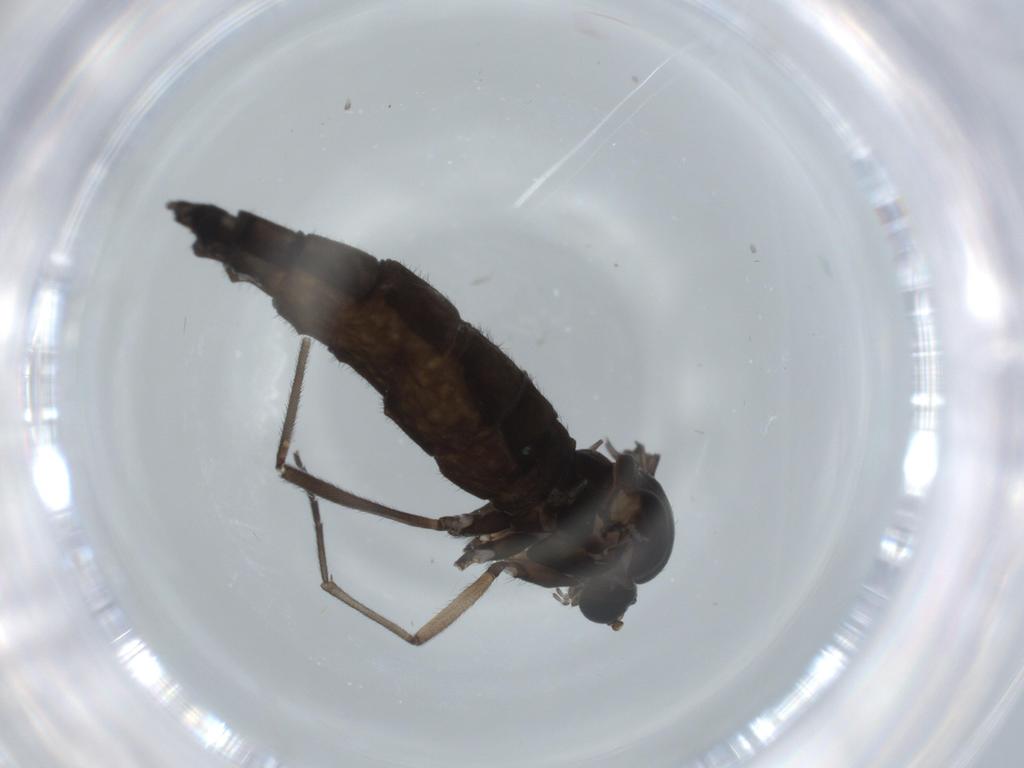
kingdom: Animalia
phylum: Arthropoda
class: Insecta
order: Diptera
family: Sciaridae
